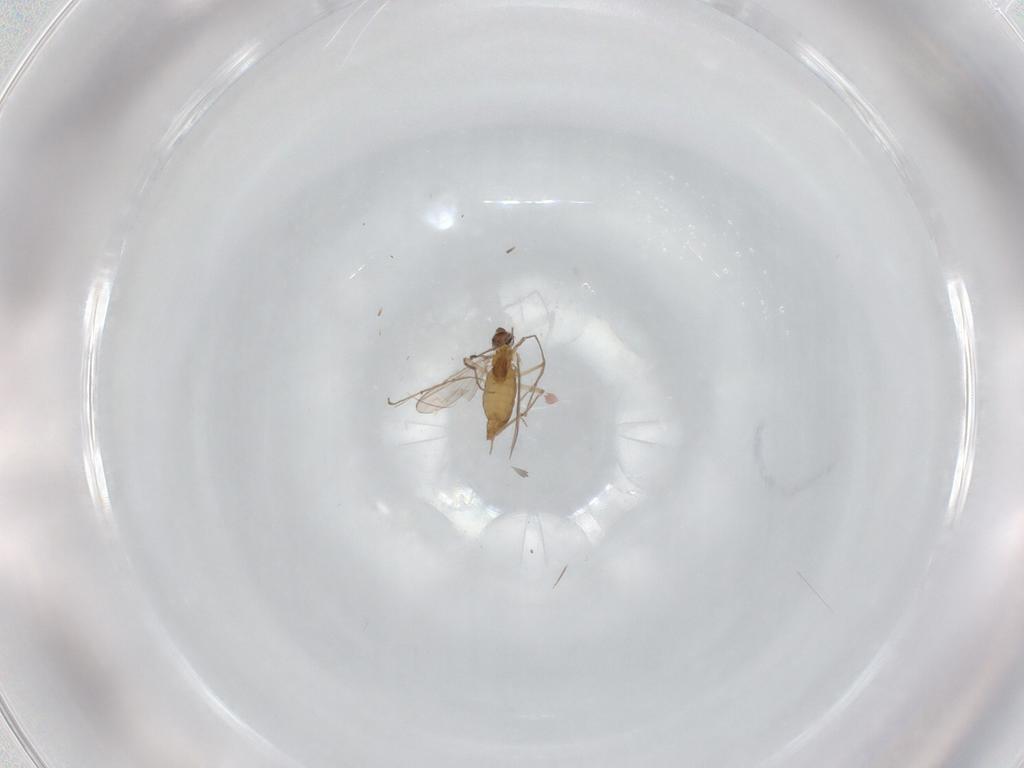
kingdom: Animalia
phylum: Arthropoda
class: Insecta
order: Diptera
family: Chironomidae
